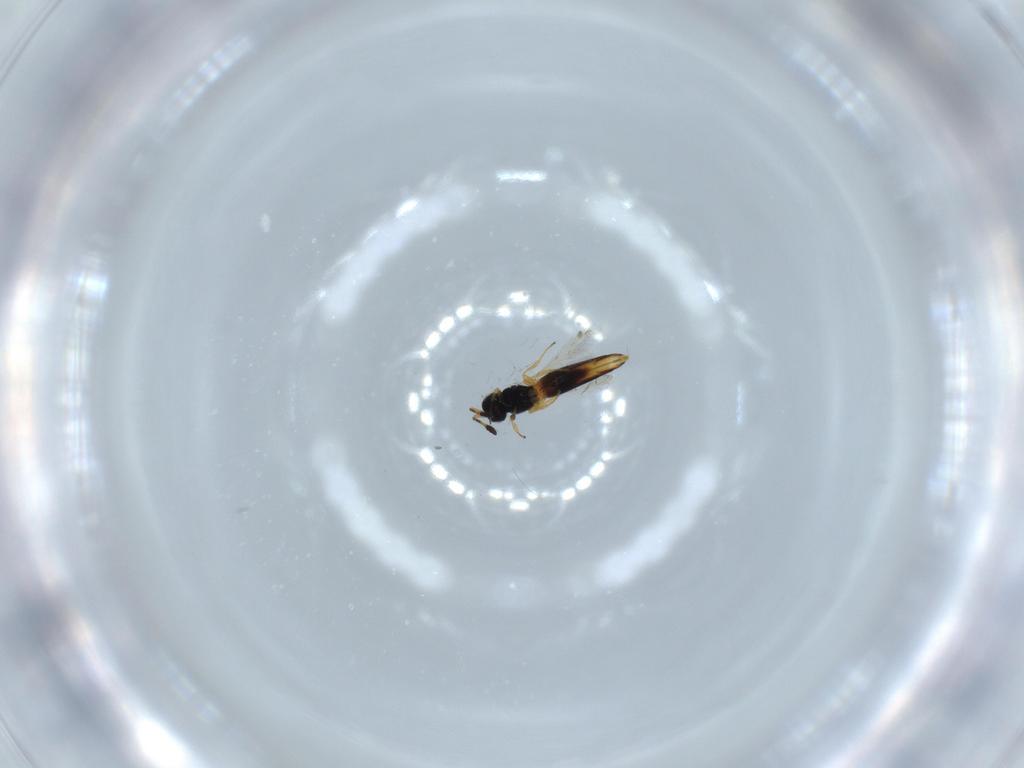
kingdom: Animalia
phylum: Arthropoda
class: Insecta
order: Hymenoptera
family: Scelionidae
